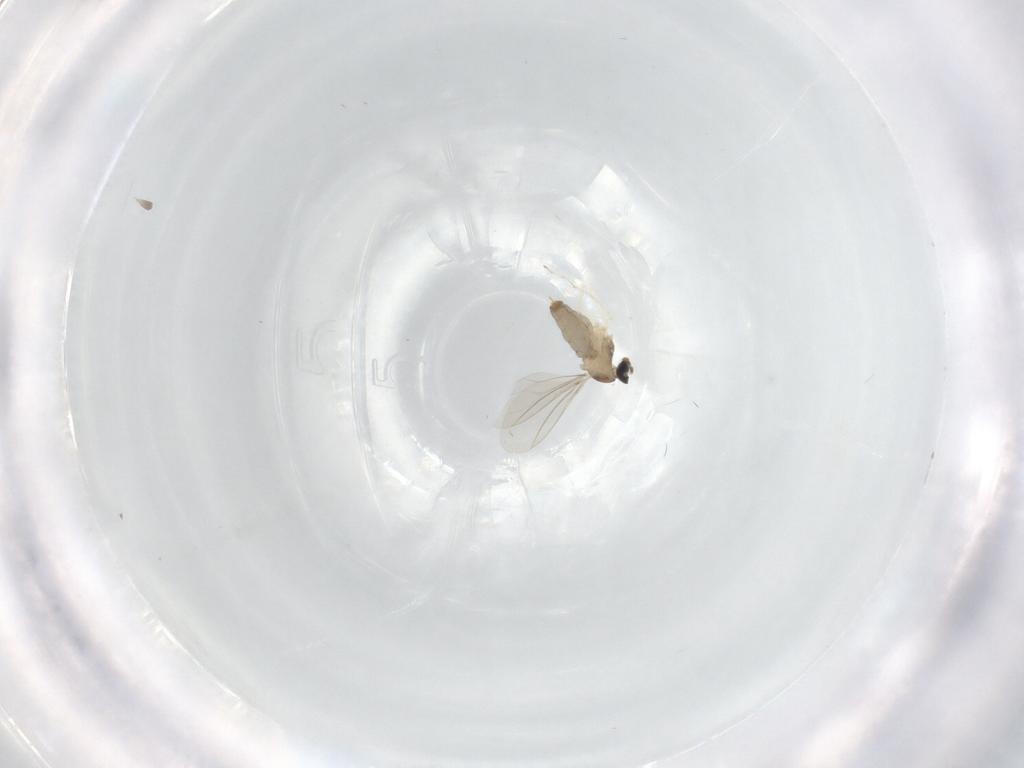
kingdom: Animalia
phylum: Arthropoda
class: Insecta
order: Diptera
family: Cecidomyiidae
